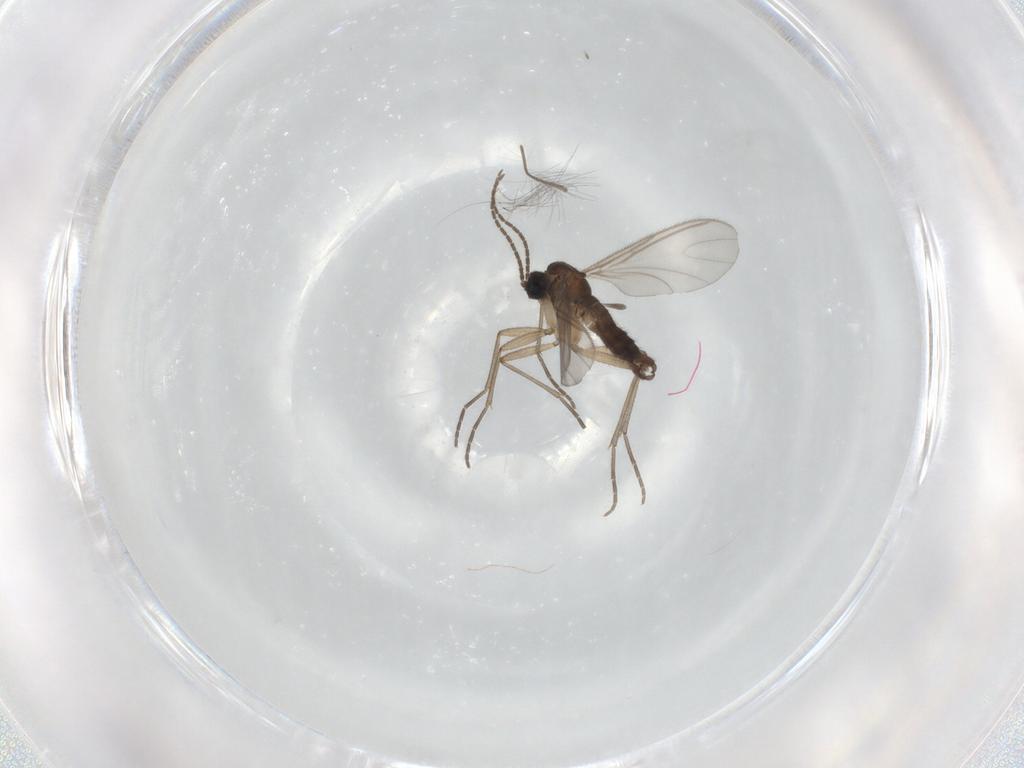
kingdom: Animalia
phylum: Arthropoda
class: Insecta
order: Diptera
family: Sciaridae
